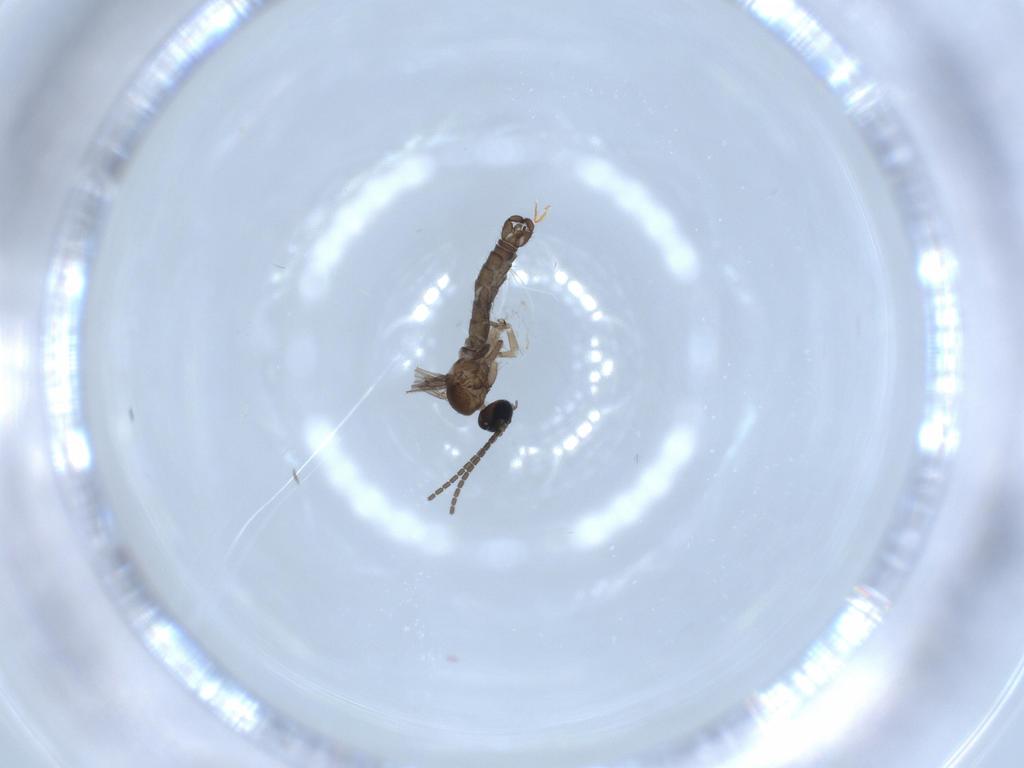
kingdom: Animalia
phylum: Arthropoda
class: Insecta
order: Diptera
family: Sciaridae
